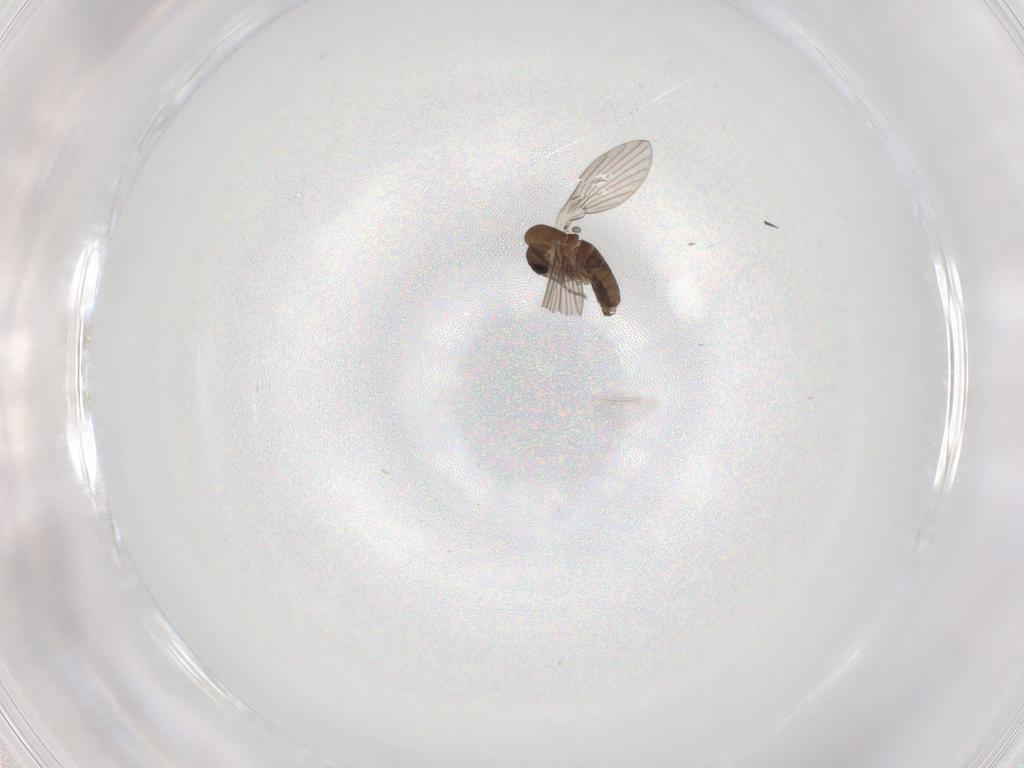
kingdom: Animalia
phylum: Arthropoda
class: Insecta
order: Diptera
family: Sciaridae
